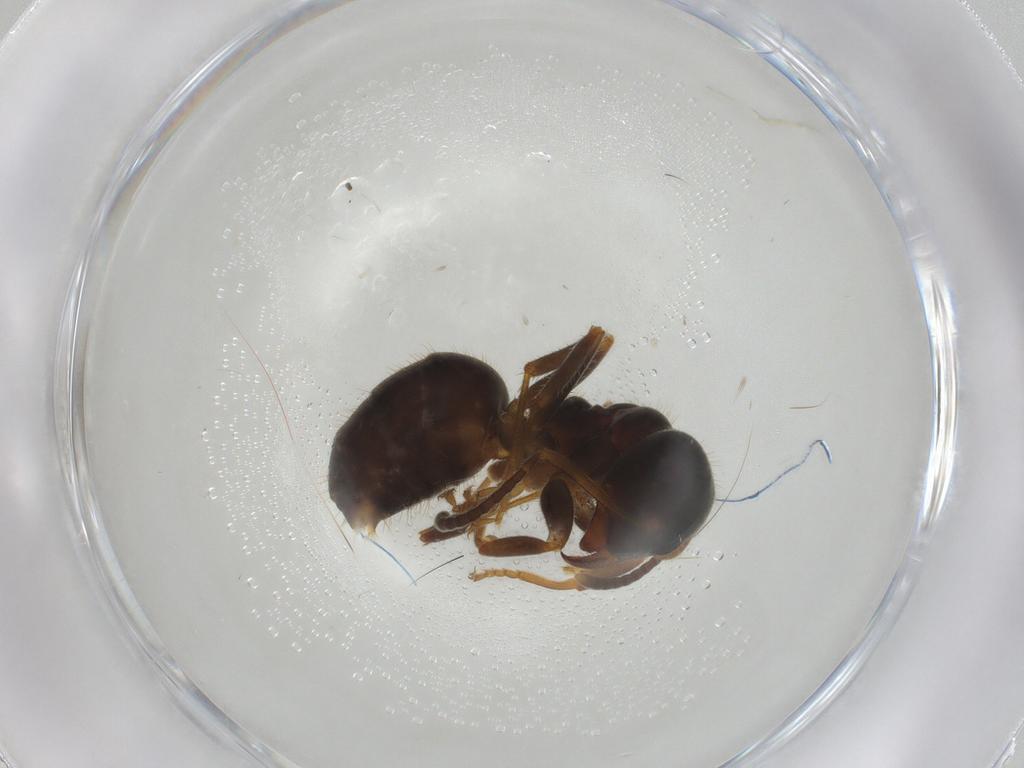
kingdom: Animalia
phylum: Arthropoda
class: Insecta
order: Hymenoptera
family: Formicidae
